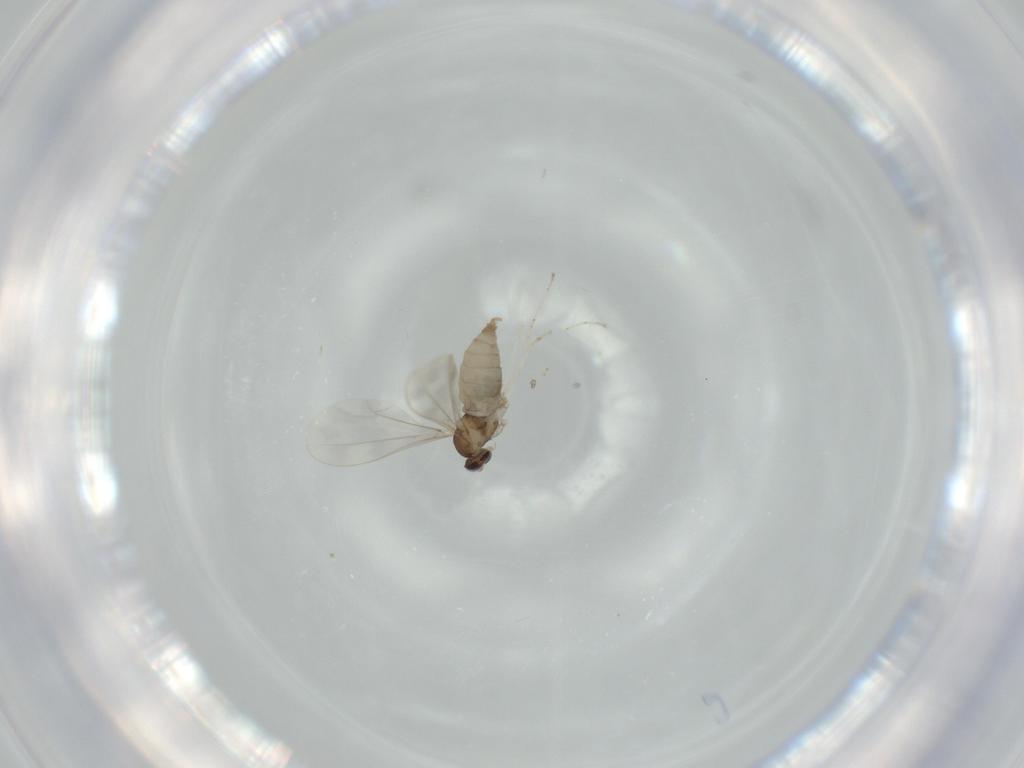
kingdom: Animalia
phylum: Arthropoda
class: Insecta
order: Diptera
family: Cecidomyiidae
